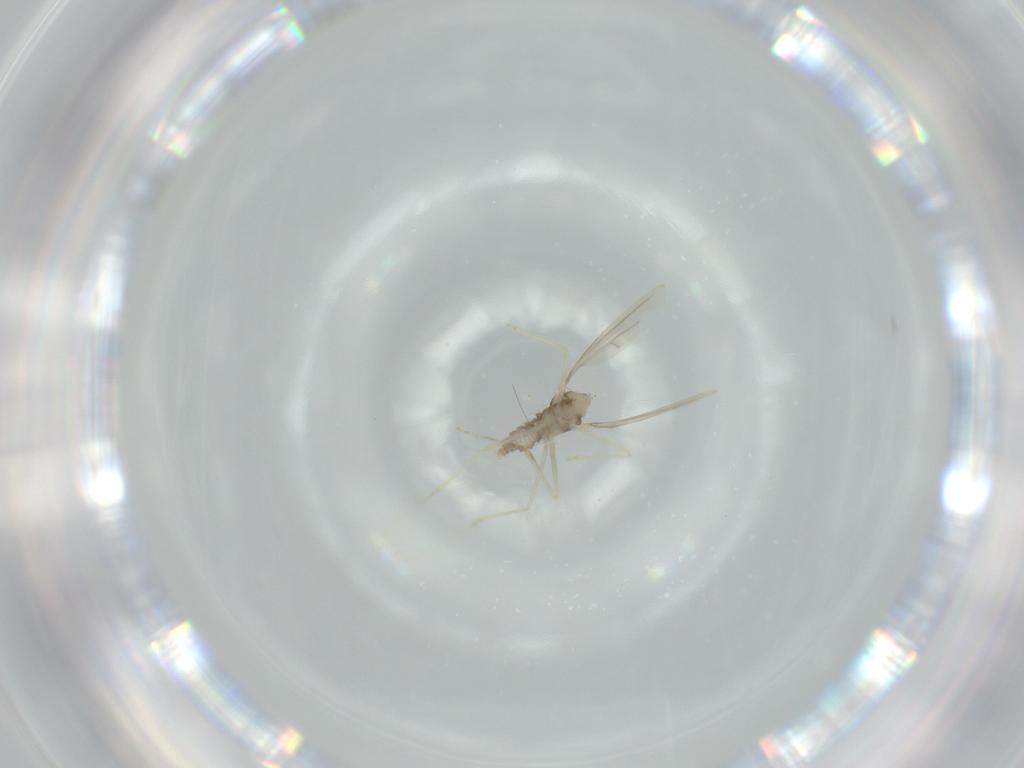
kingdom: Animalia
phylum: Arthropoda
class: Insecta
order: Diptera
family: Cecidomyiidae
